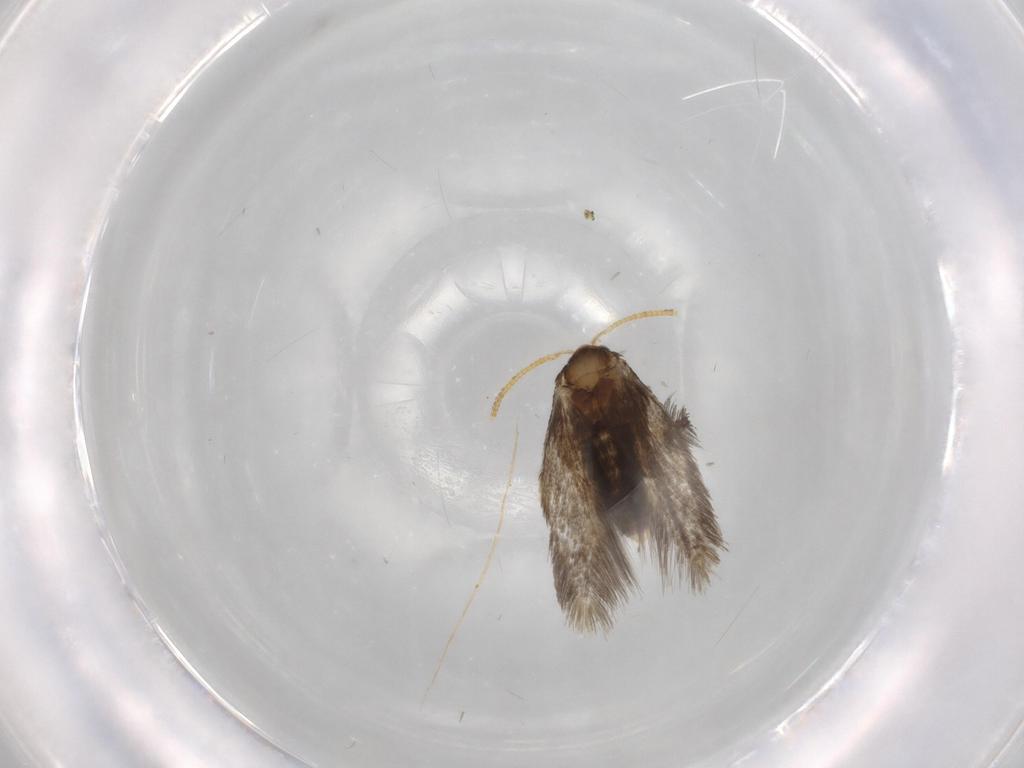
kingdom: Animalia
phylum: Arthropoda
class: Insecta
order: Lepidoptera
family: Nepticulidae
